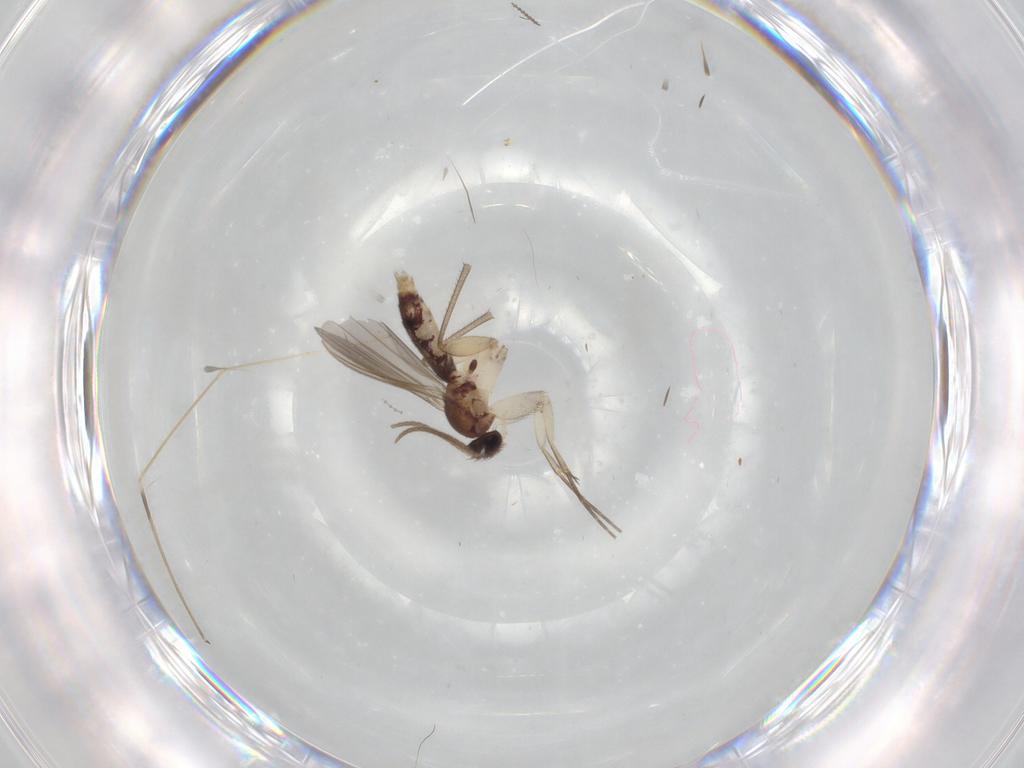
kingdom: Animalia
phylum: Arthropoda
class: Insecta
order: Diptera
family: Mycetophilidae
